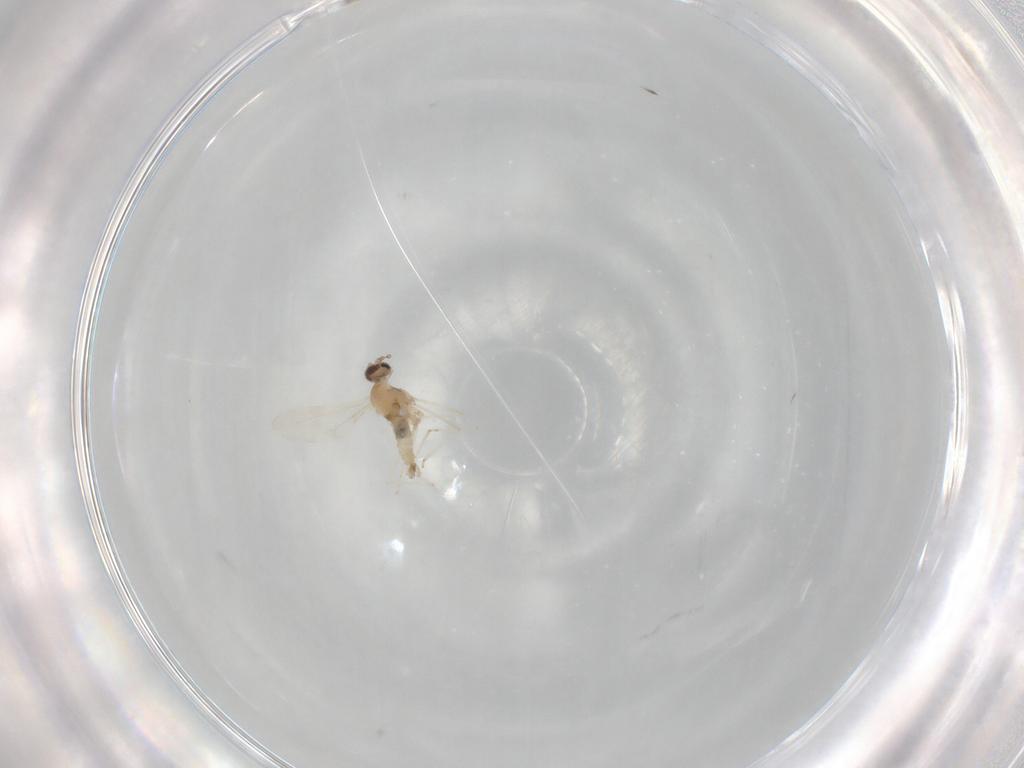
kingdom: Animalia
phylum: Arthropoda
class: Insecta
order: Diptera
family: Cecidomyiidae
